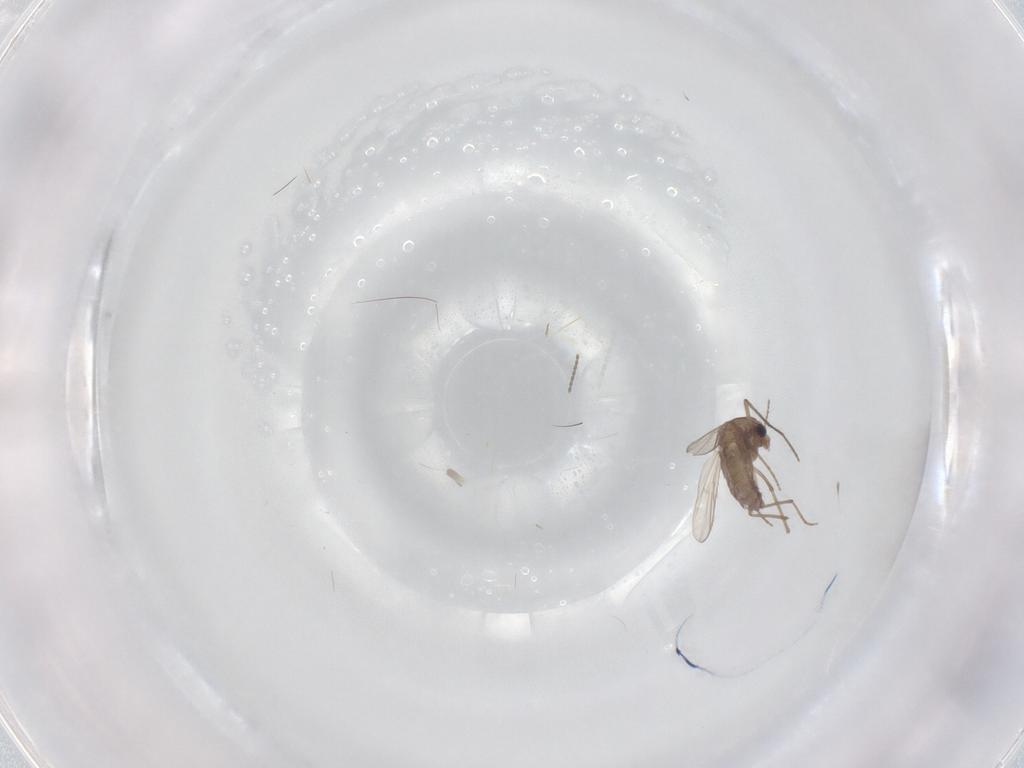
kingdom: Animalia
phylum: Arthropoda
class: Insecta
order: Diptera
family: Chironomidae
